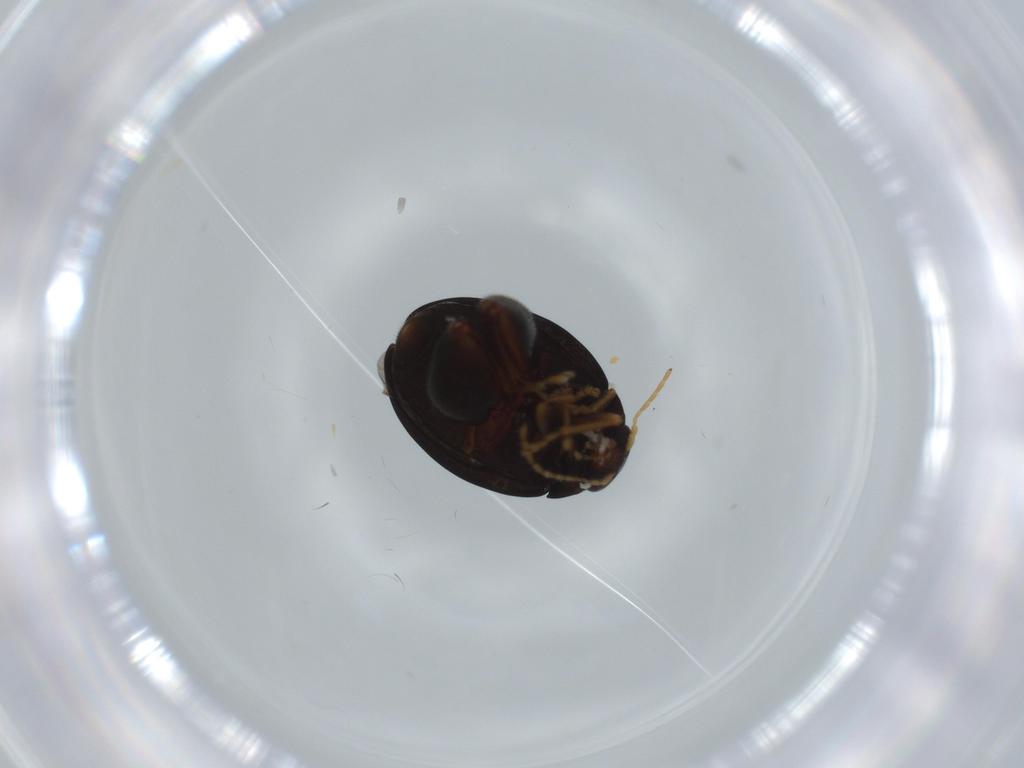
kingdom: Animalia
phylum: Arthropoda
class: Insecta
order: Coleoptera
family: Chrysomelidae
